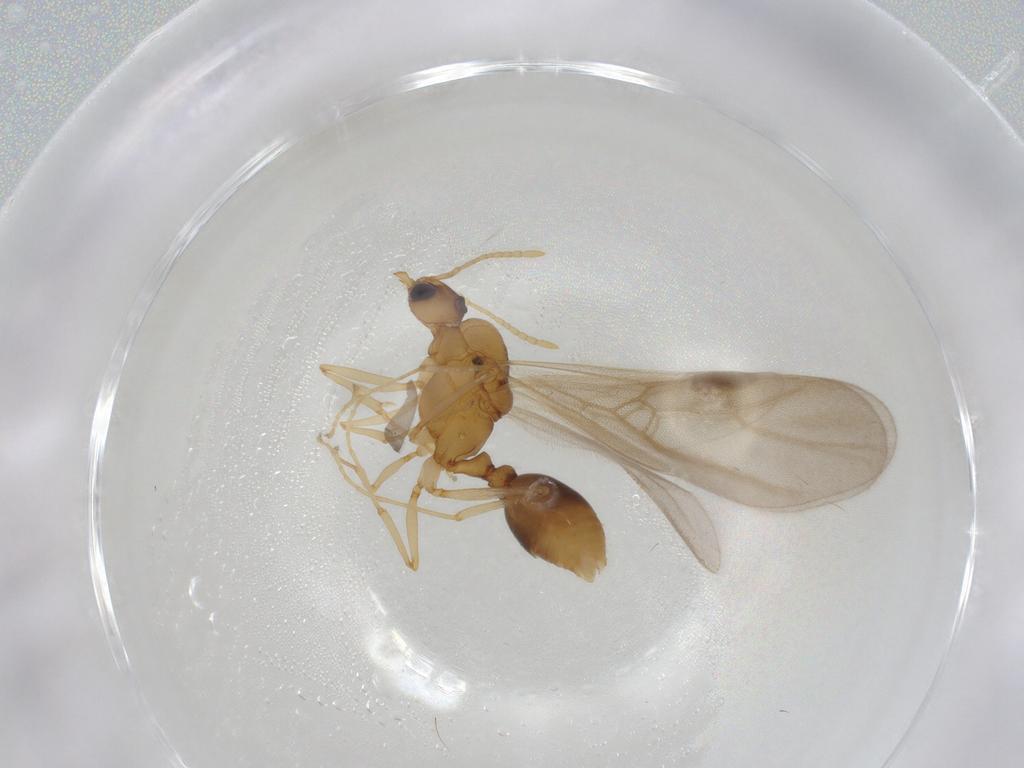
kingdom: Animalia
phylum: Arthropoda
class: Insecta
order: Hymenoptera
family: Formicidae
